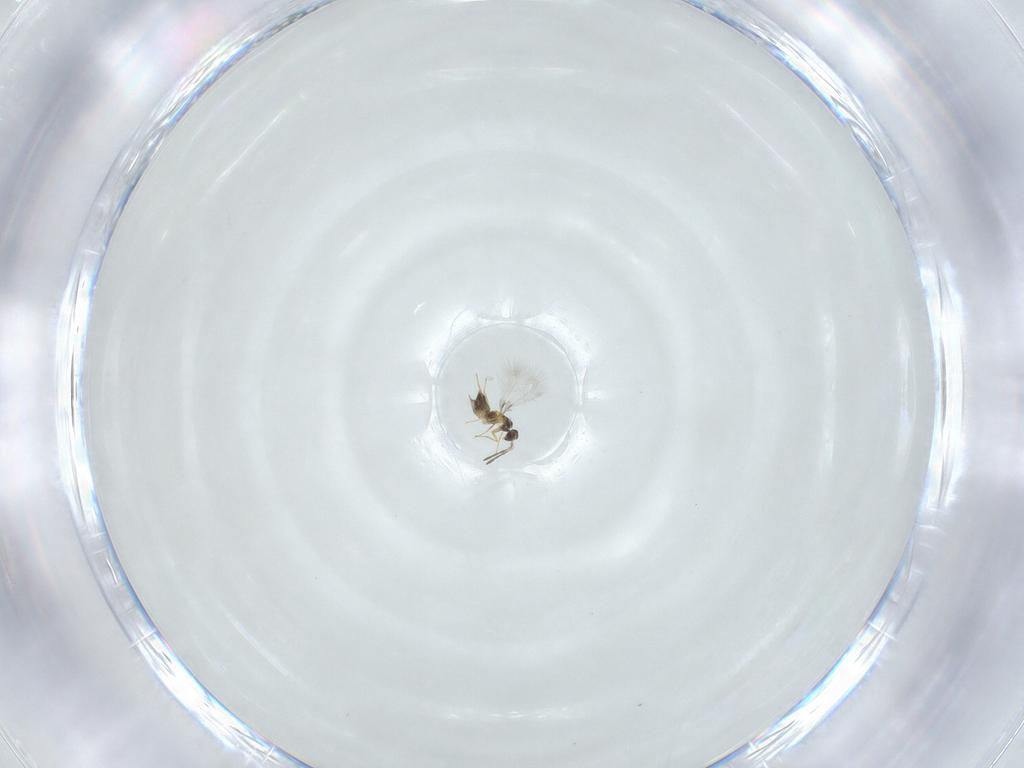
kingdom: Animalia
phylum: Arthropoda
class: Insecta
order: Hymenoptera
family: Mymaridae
